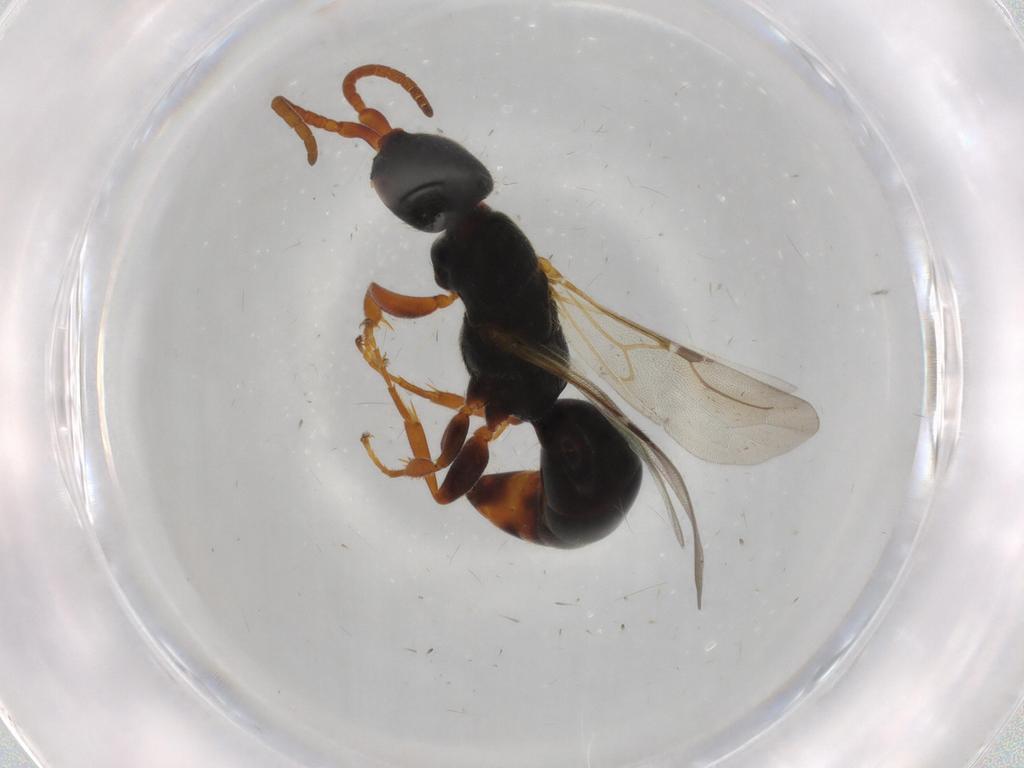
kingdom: Animalia
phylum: Arthropoda
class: Insecta
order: Hymenoptera
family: Bethylidae
